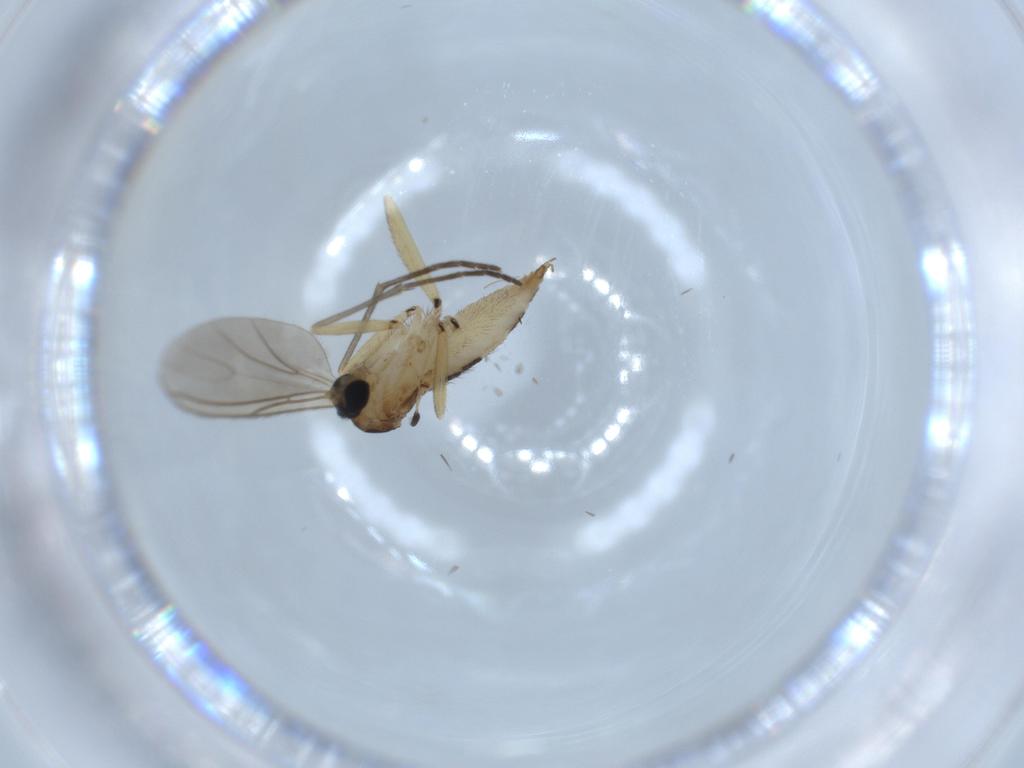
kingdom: Animalia
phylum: Arthropoda
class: Insecta
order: Diptera
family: Sciaridae
